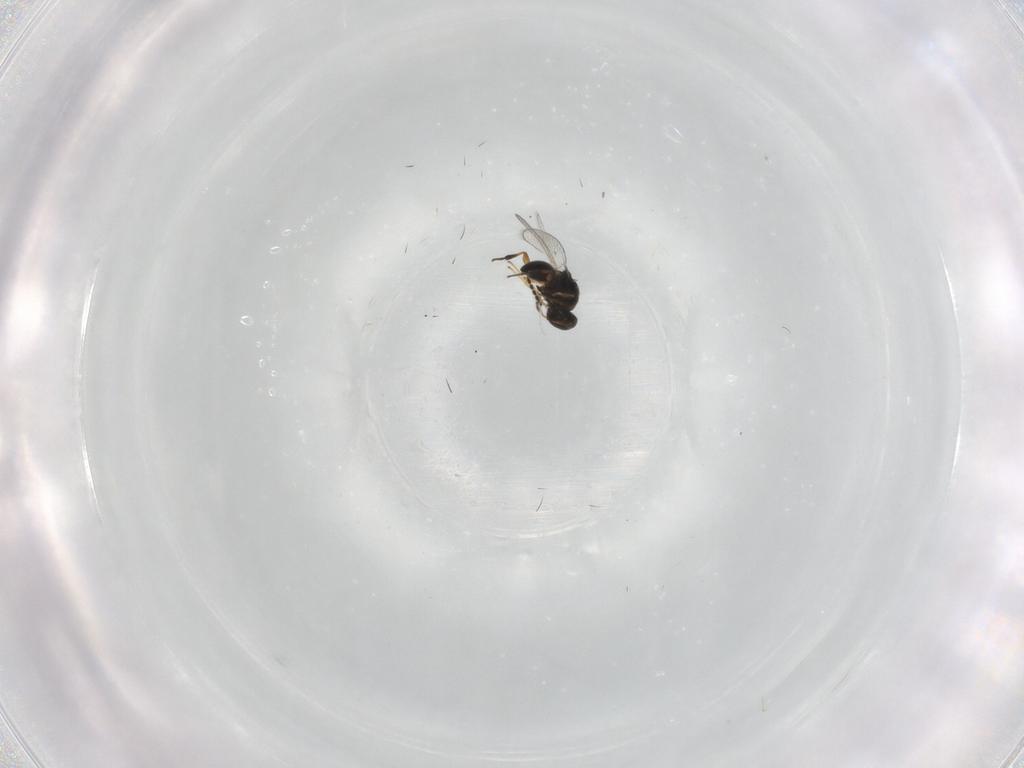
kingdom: Animalia
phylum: Arthropoda
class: Insecta
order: Hymenoptera
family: Platygastridae
